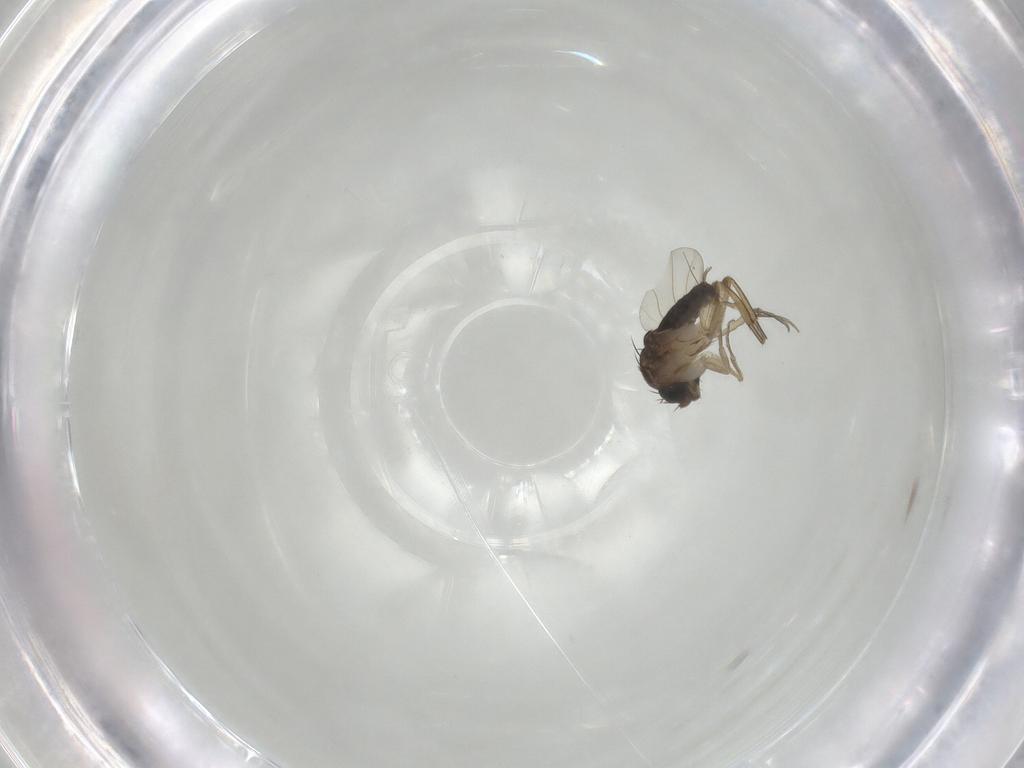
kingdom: Animalia
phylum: Arthropoda
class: Insecta
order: Diptera
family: Phoridae
